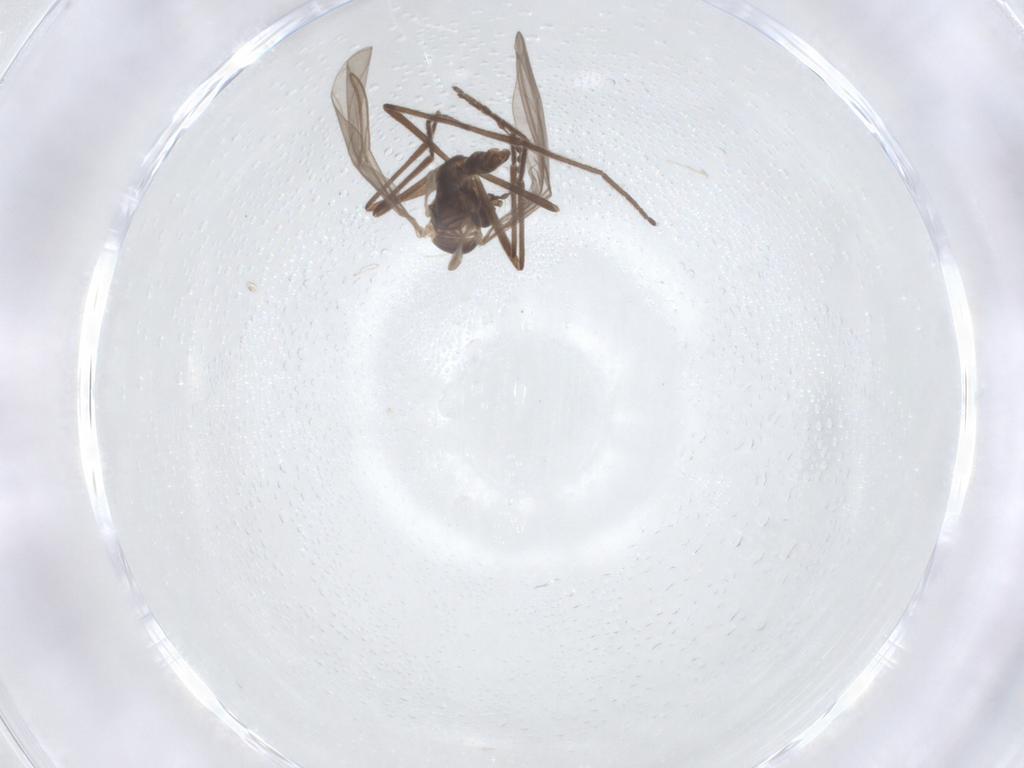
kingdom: Animalia
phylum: Arthropoda
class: Insecta
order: Diptera
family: Cecidomyiidae
